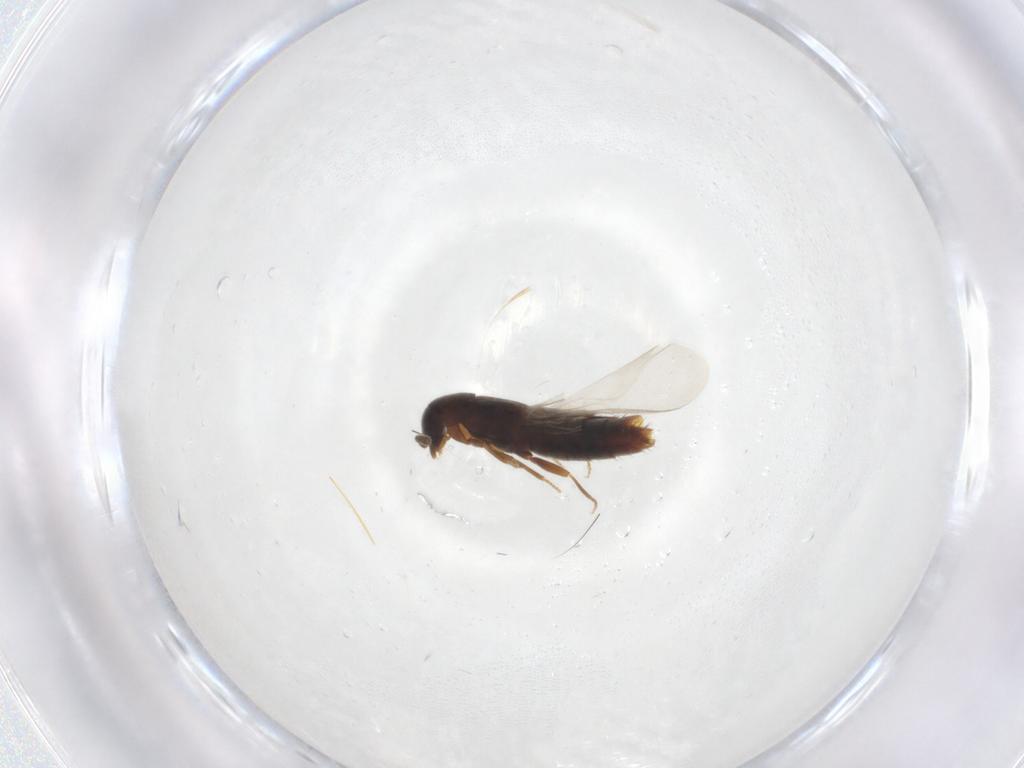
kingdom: Animalia
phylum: Arthropoda
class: Insecta
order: Coleoptera
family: Staphylinidae
